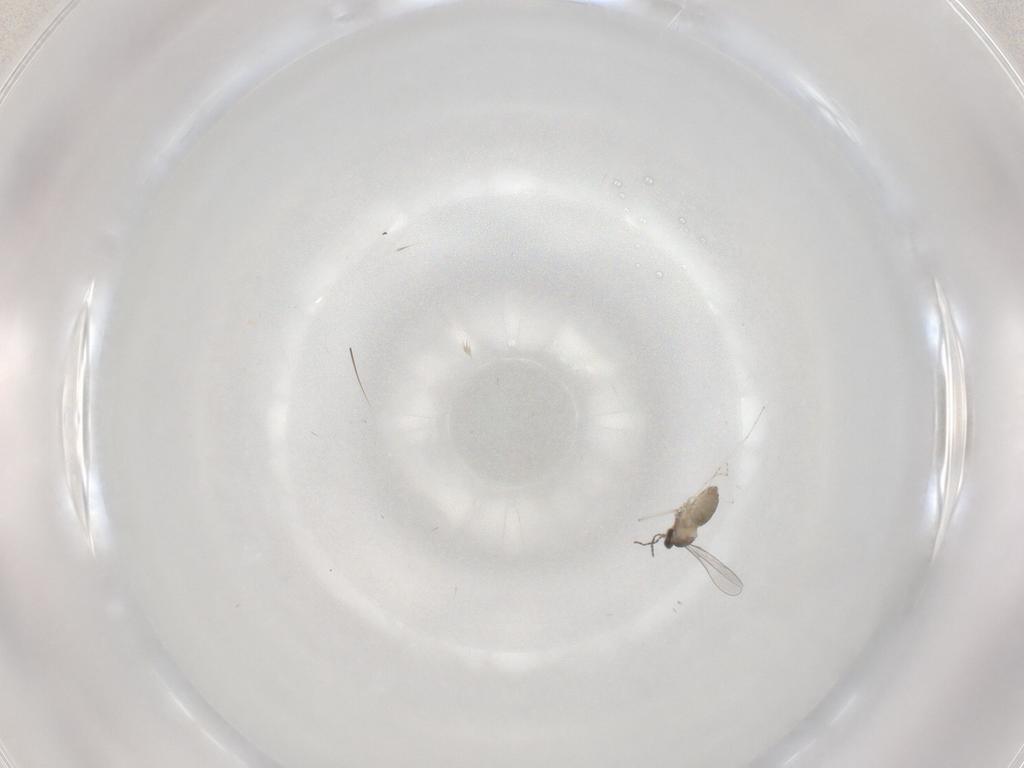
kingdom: Animalia
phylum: Arthropoda
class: Insecta
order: Diptera
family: Cecidomyiidae
